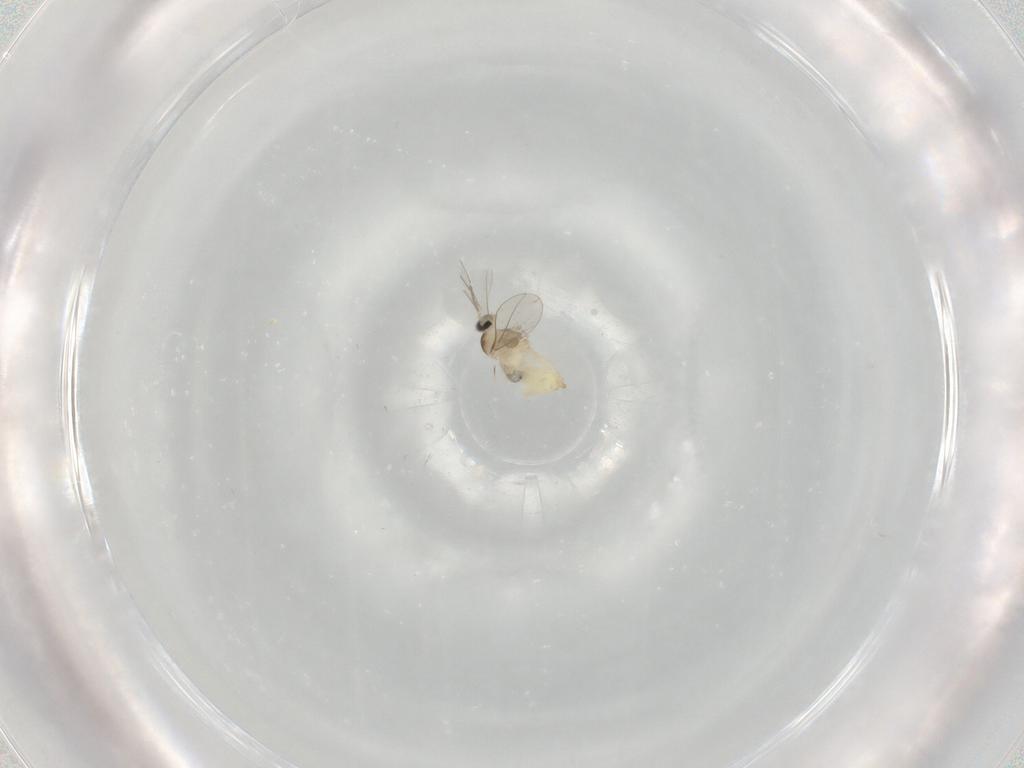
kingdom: Animalia
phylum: Arthropoda
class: Insecta
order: Diptera
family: Cecidomyiidae
